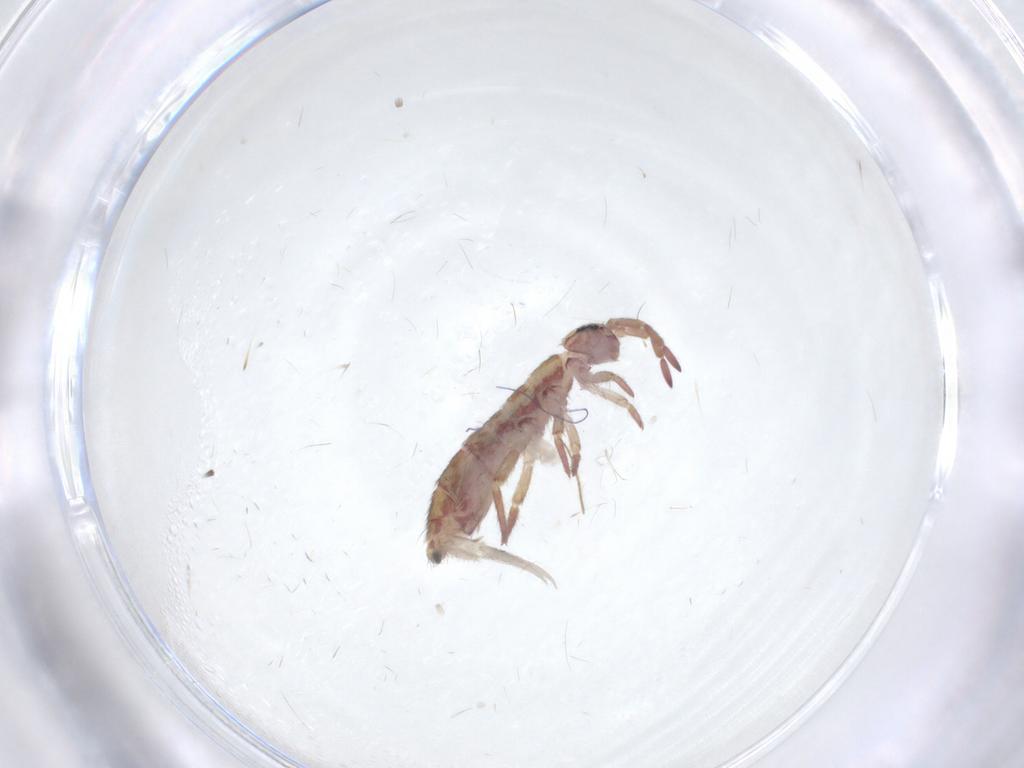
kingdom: Animalia
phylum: Arthropoda
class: Collembola
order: Entomobryomorpha
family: Isotomidae
